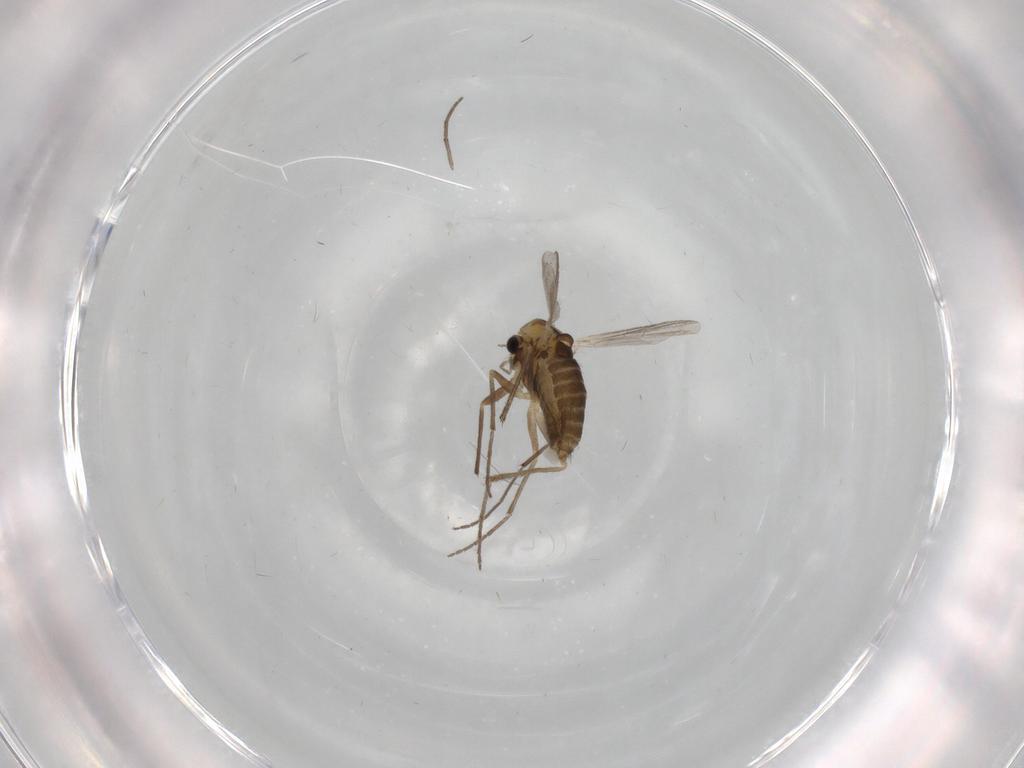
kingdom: Animalia
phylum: Arthropoda
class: Insecta
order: Diptera
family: Chironomidae
